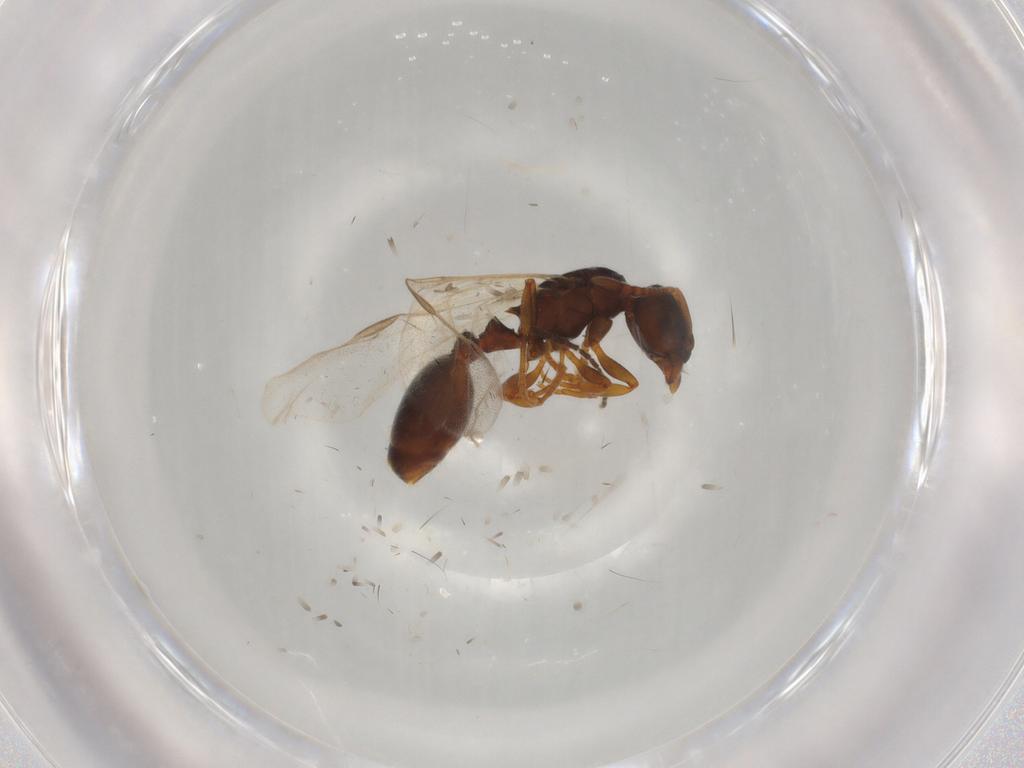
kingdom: Animalia
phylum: Arthropoda
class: Insecta
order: Hymenoptera
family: Formicidae
